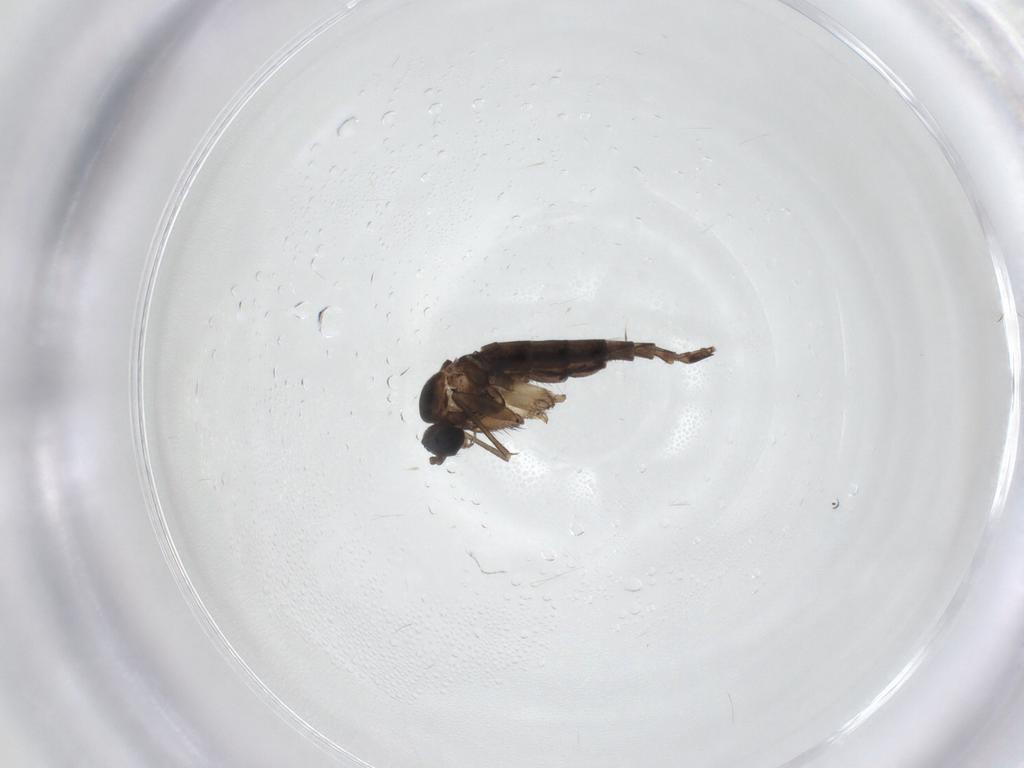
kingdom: Animalia
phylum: Arthropoda
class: Insecta
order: Diptera
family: Sciaridae
